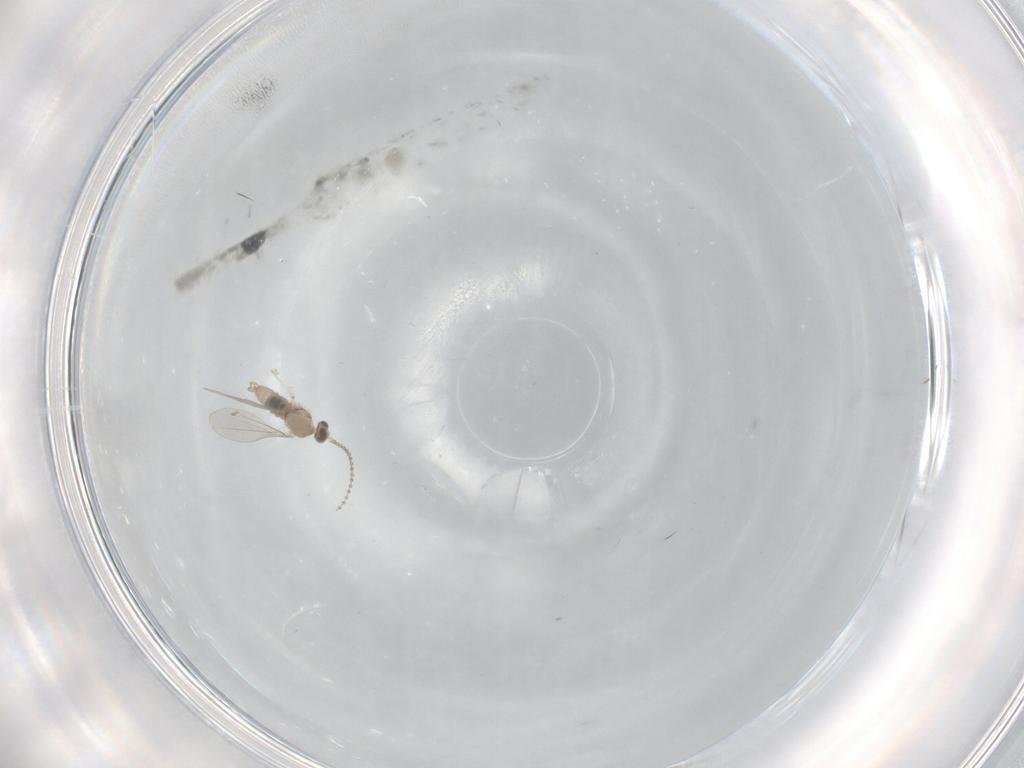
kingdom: Animalia
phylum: Arthropoda
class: Insecta
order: Diptera
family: Cecidomyiidae
